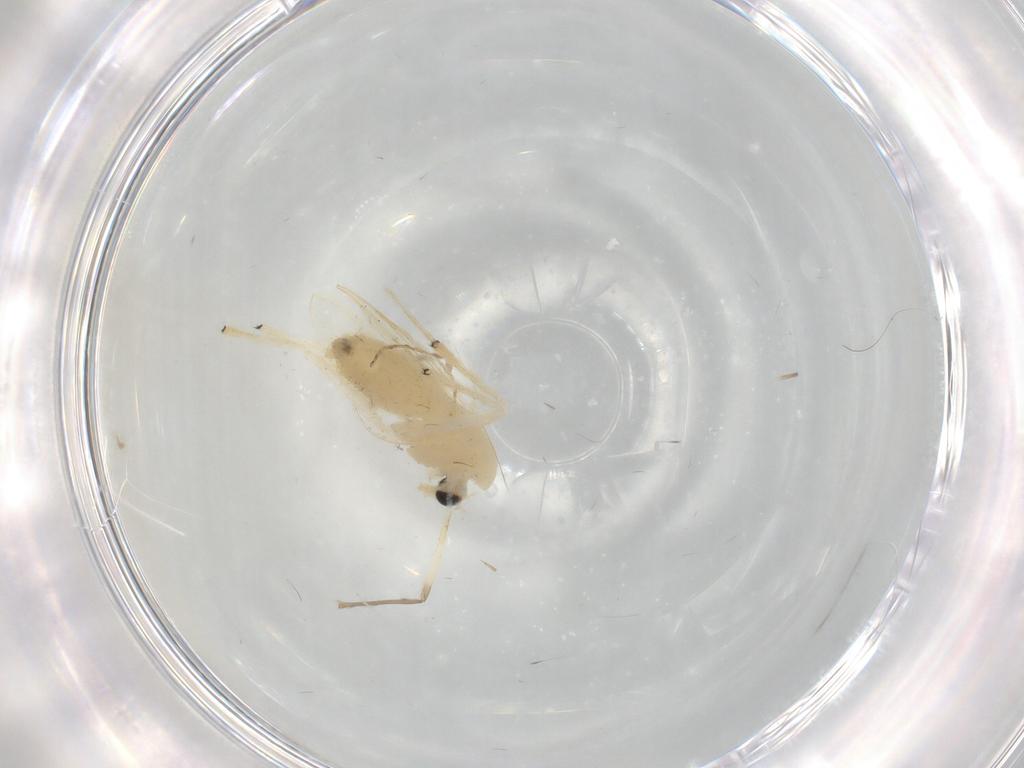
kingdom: Animalia
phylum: Arthropoda
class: Insecta
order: Diptera
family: Chironomidae
